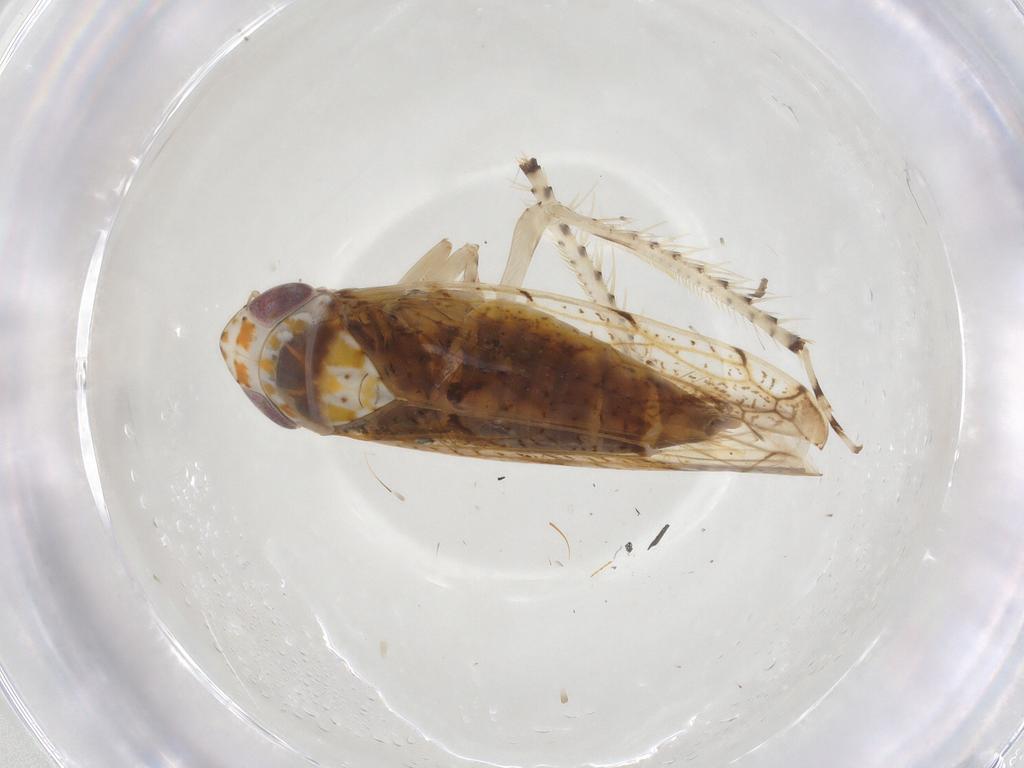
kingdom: Animalia
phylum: Arthropoda
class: Insecta
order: Hemiptera
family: Cicadellidae
